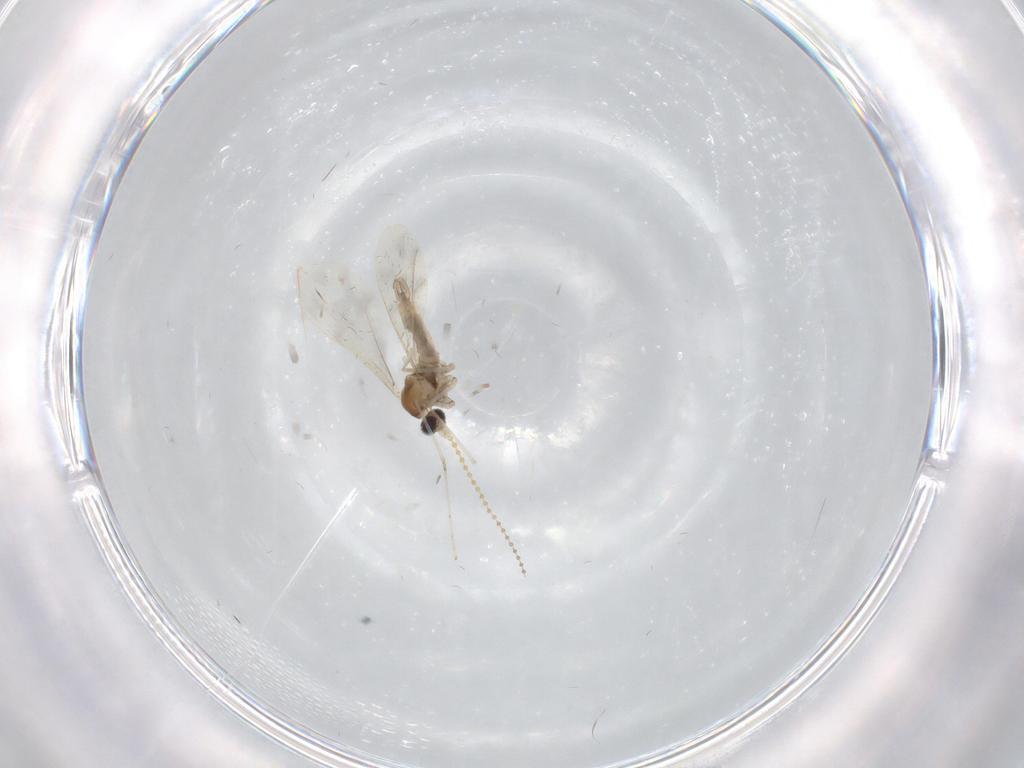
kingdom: Animalia
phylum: Arthropoda
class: Insecta
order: Diptera
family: Cecidomyiidae
